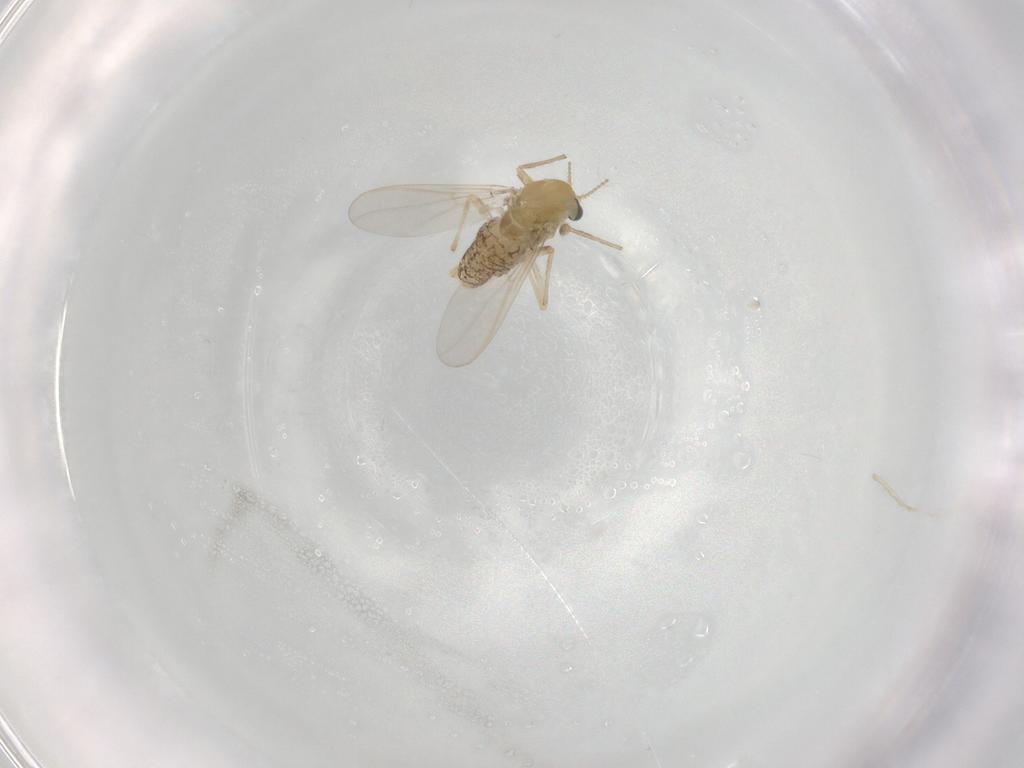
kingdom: Animalia
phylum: Arthropoda
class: Insecta
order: Diptera
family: Chironomidae
